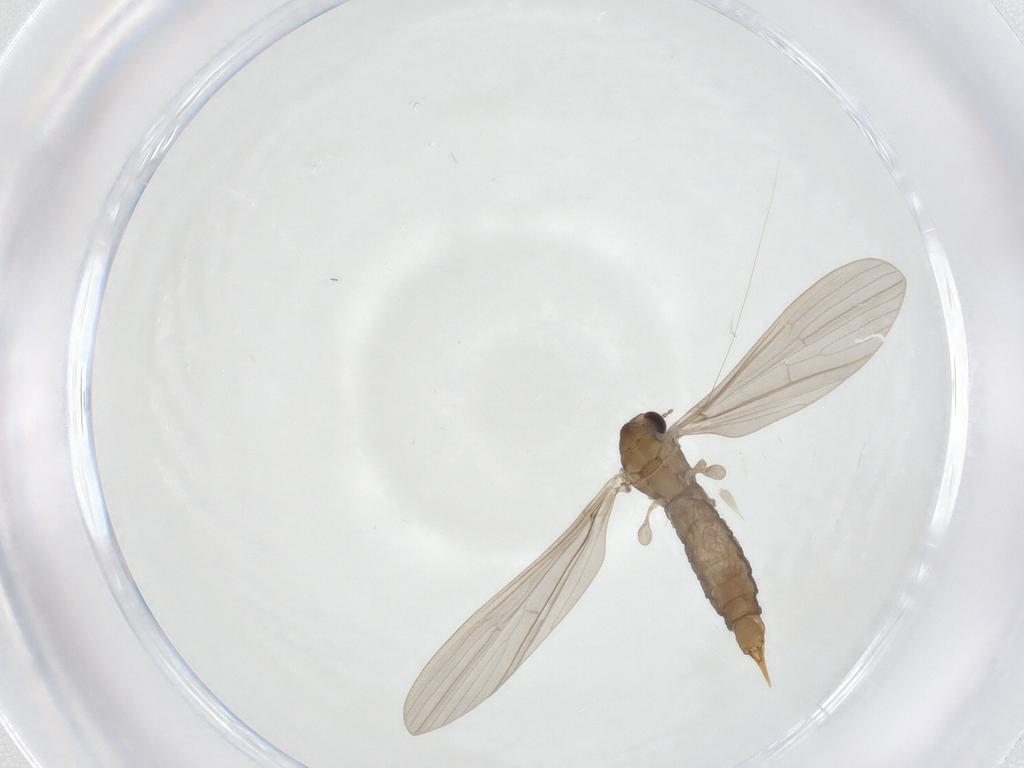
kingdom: Animalia
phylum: Arthropoda
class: Insecta
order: Diptera
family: Limoniidae
